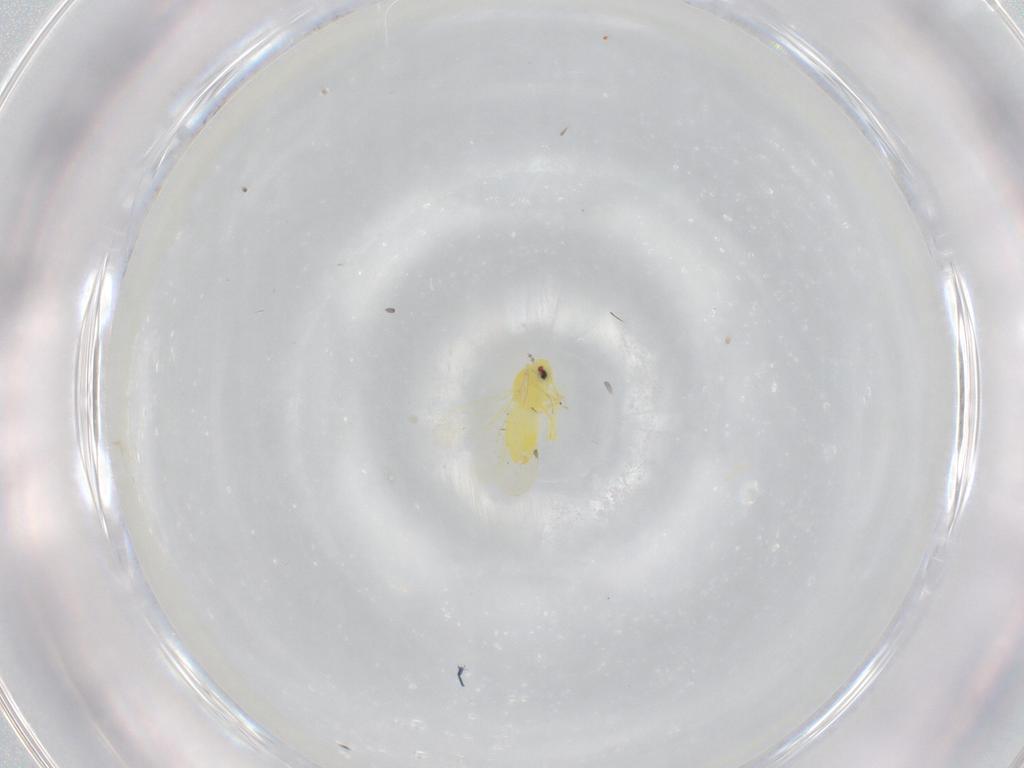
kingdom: Animalia
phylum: Arthropoda
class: Insecta
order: Hemiptera
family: Aleyrodidae
